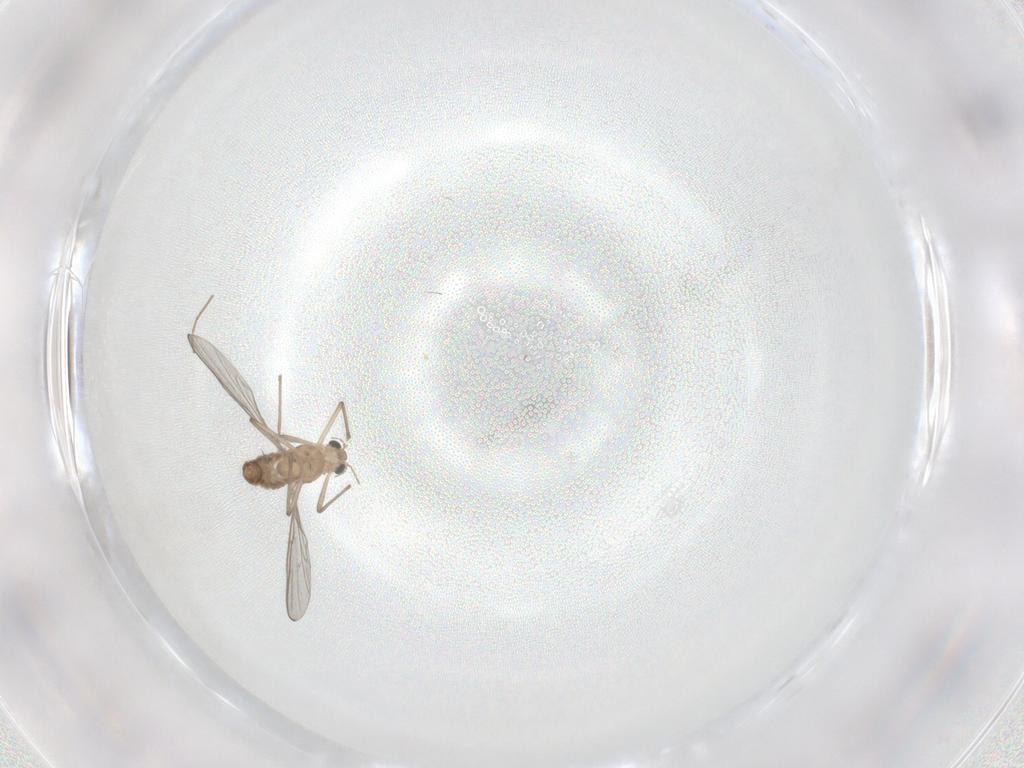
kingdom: Animalia
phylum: Arthropoda
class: Insecta
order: Diptera
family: Chironomidae
